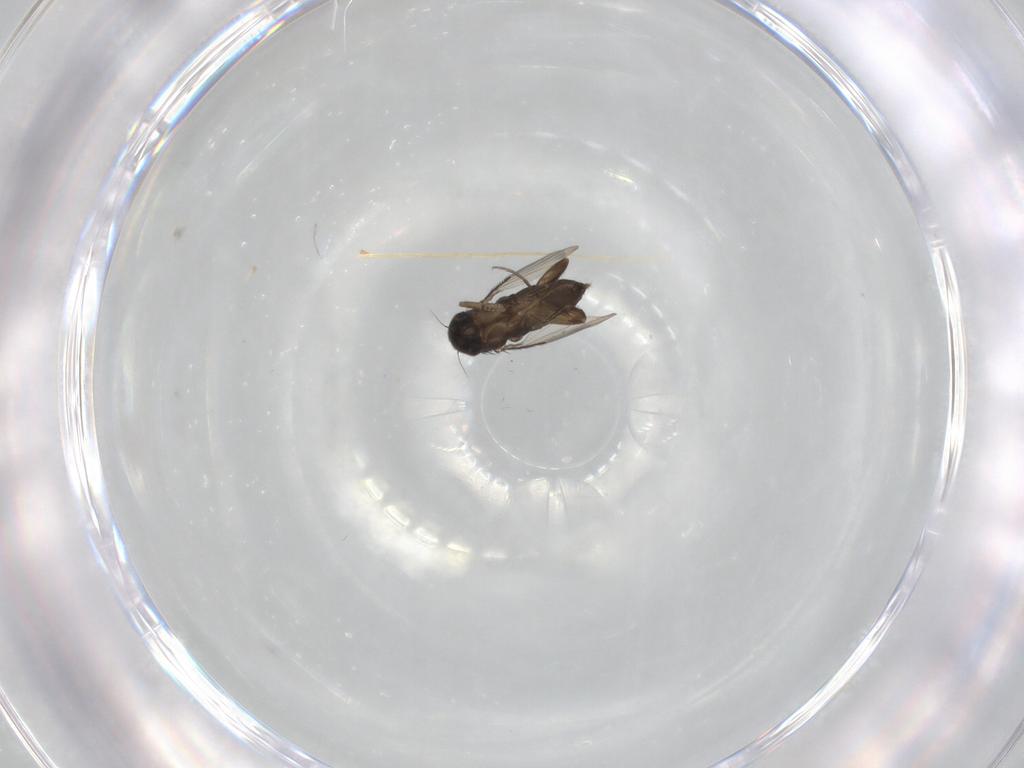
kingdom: Animalia
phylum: Arthropoda
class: Insecta
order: Diptera
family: Phoridae
